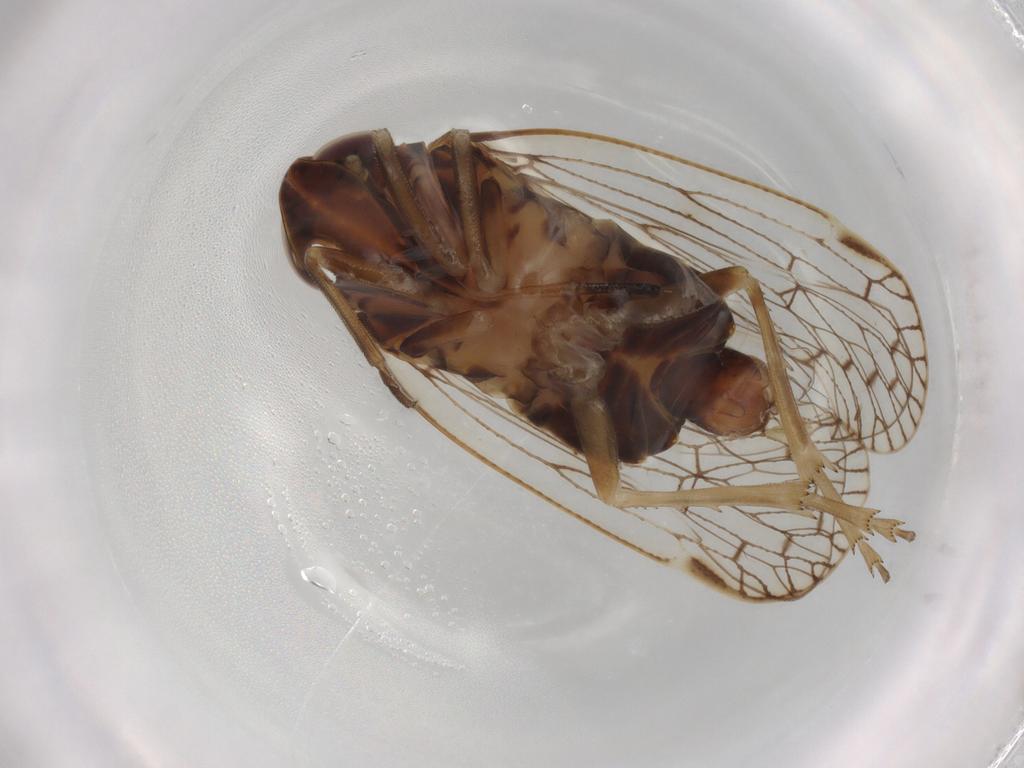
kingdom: Animalia
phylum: Arthropoda
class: Insecta
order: Hemiptera
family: Cixiidae
